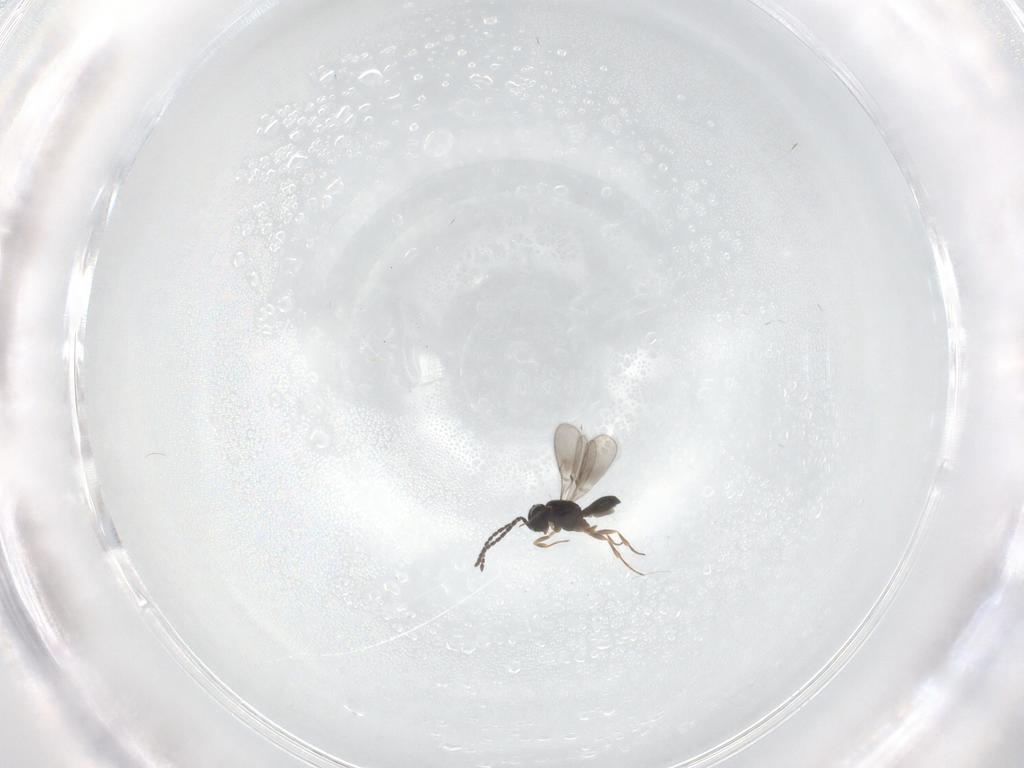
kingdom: Animalia
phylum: Arthropoda
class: Insecta
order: Hymenoptera
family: Scelionidae
